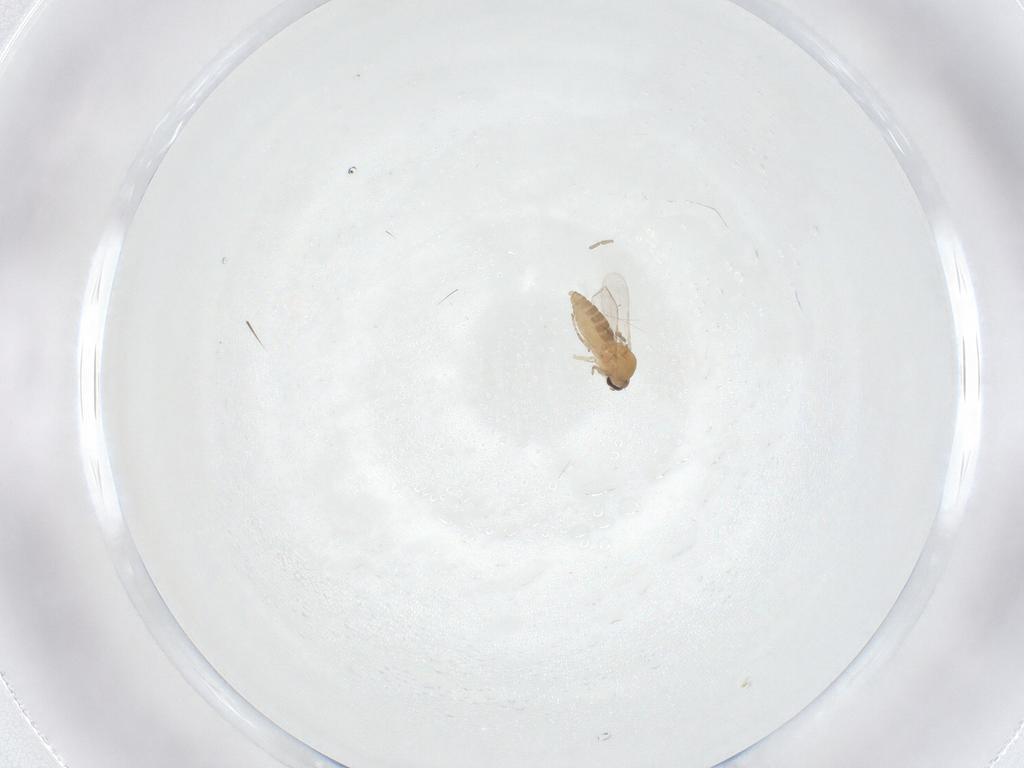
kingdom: Animalia
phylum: Arthropoda
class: Insecta
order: Diptera
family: Ceratopogonidae
